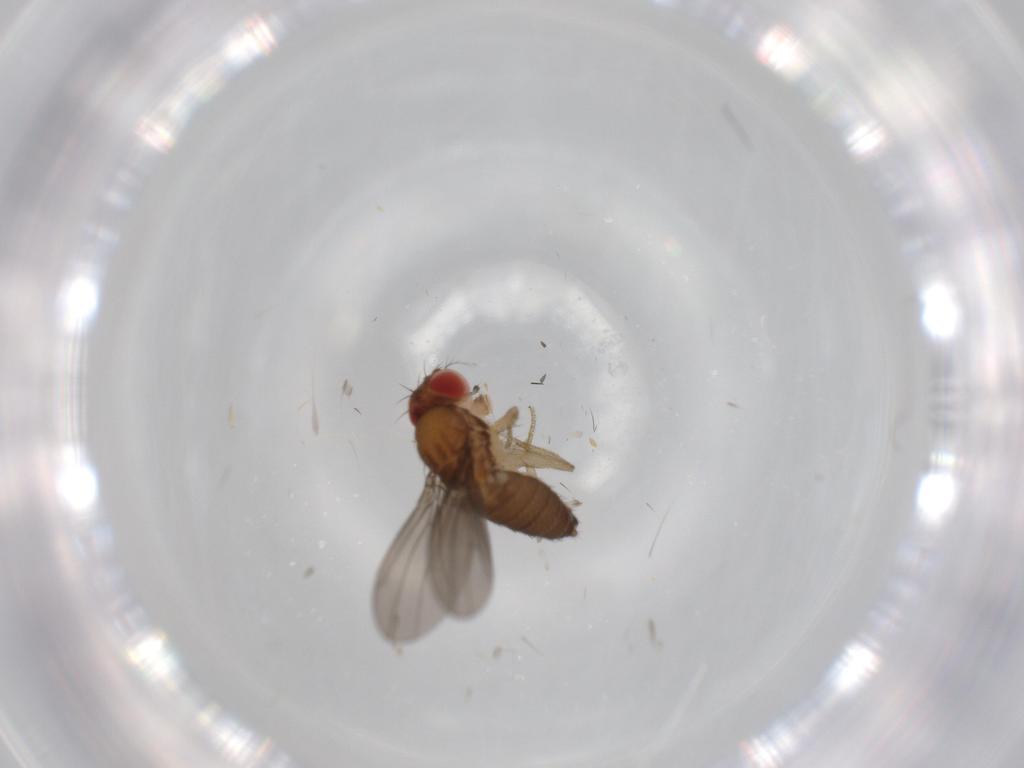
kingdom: Animalia
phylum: Arthropoda
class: Insecta
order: Diptera
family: Drosophilidae
